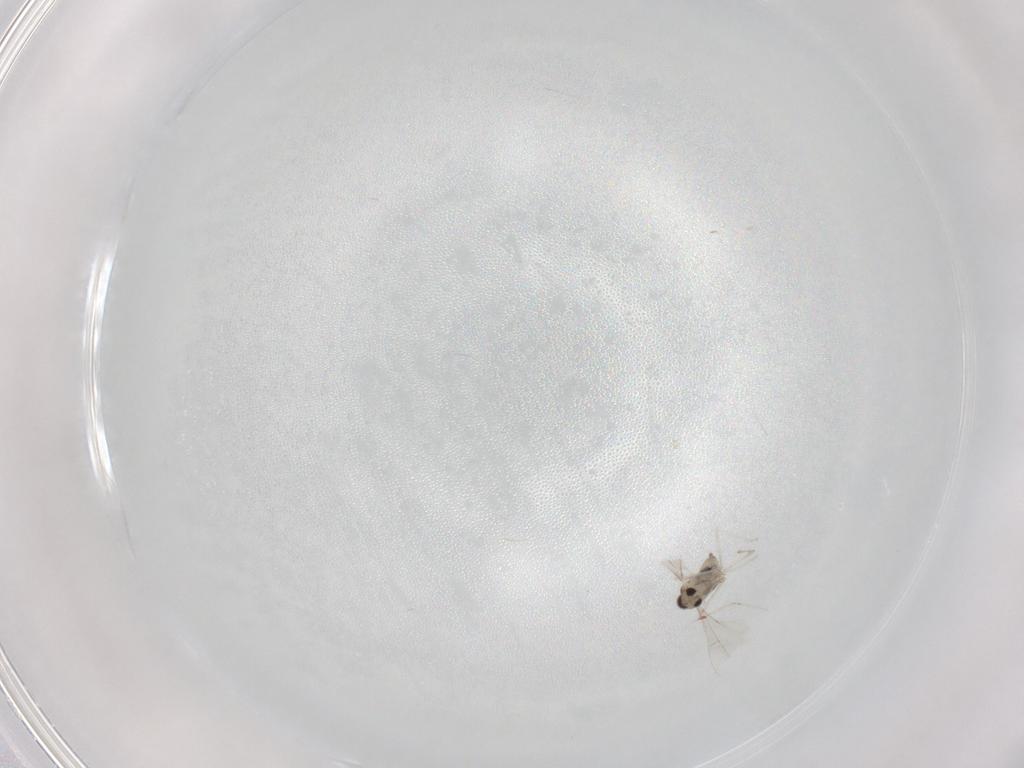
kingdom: Animalia
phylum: Arthropoda
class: Insecta
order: Diptera
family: Cecidomyiidae
